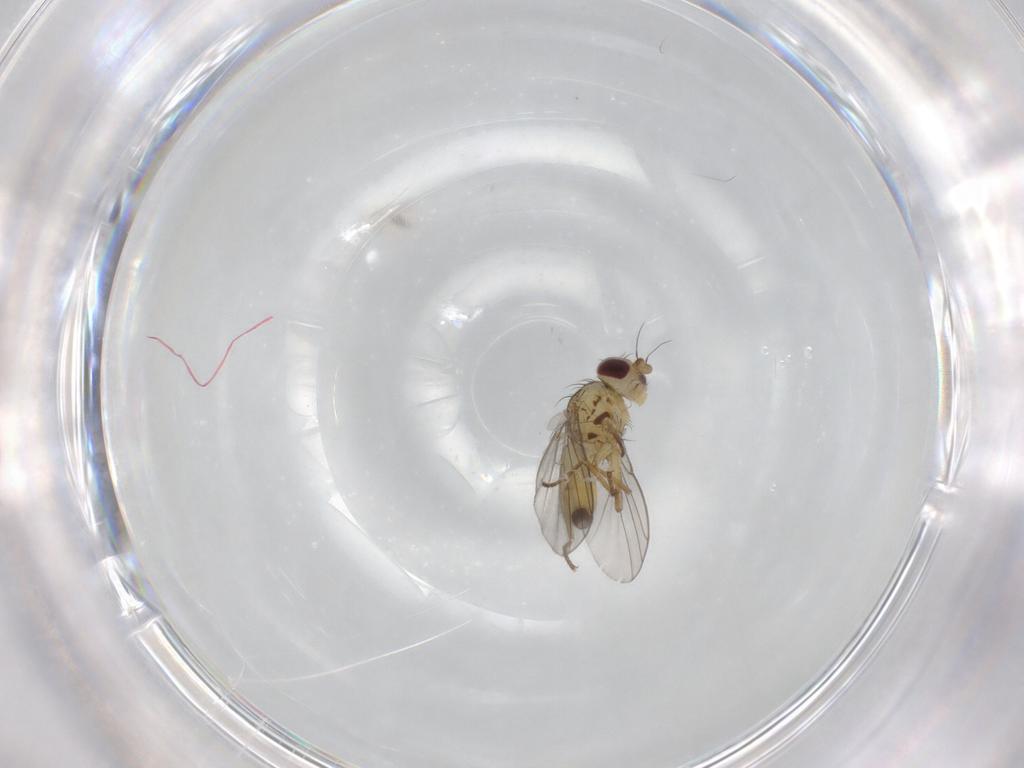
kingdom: Animalia
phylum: Arthropoda
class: Insecta
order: Diptera
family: Agromyzidae
